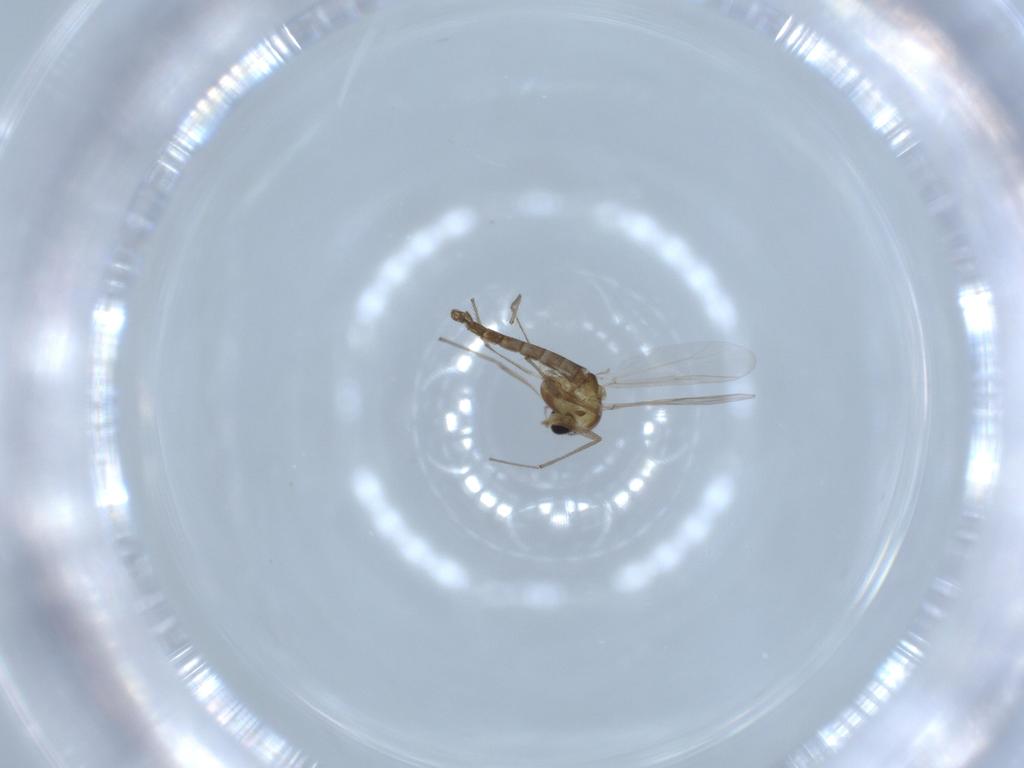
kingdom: Animalia
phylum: Arthropoda
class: Insecta
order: Diptera
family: Chironomidae
